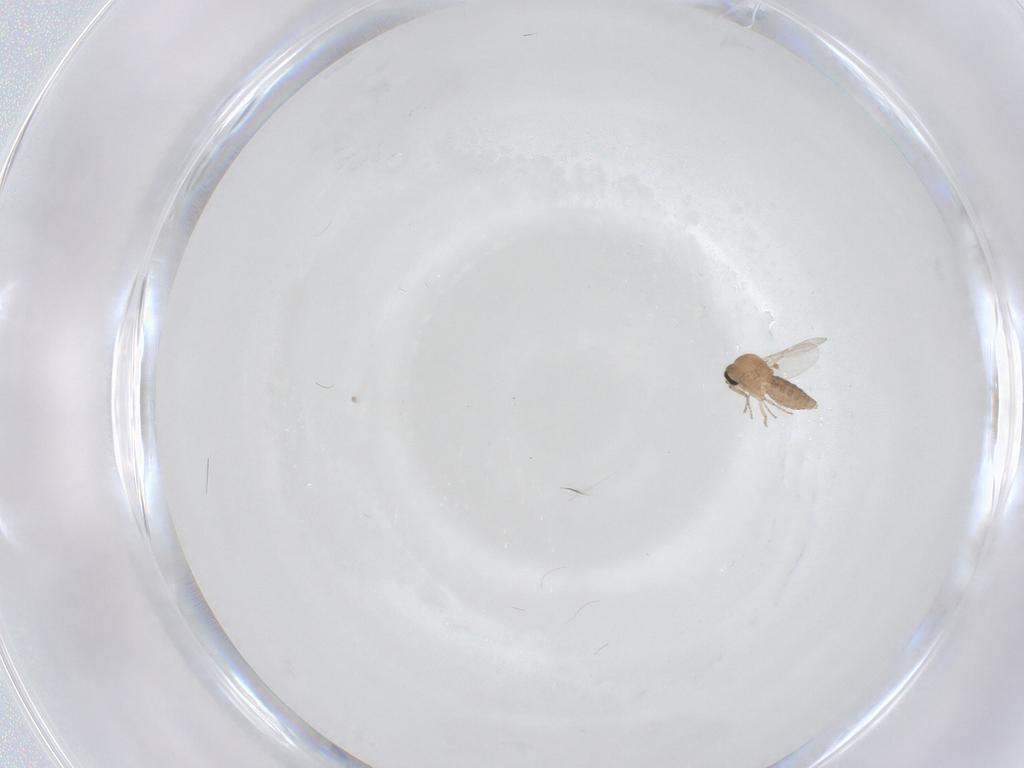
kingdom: Animalia
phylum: Arthropoda
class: Insecta
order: Diptera
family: Ceratopogonidae
